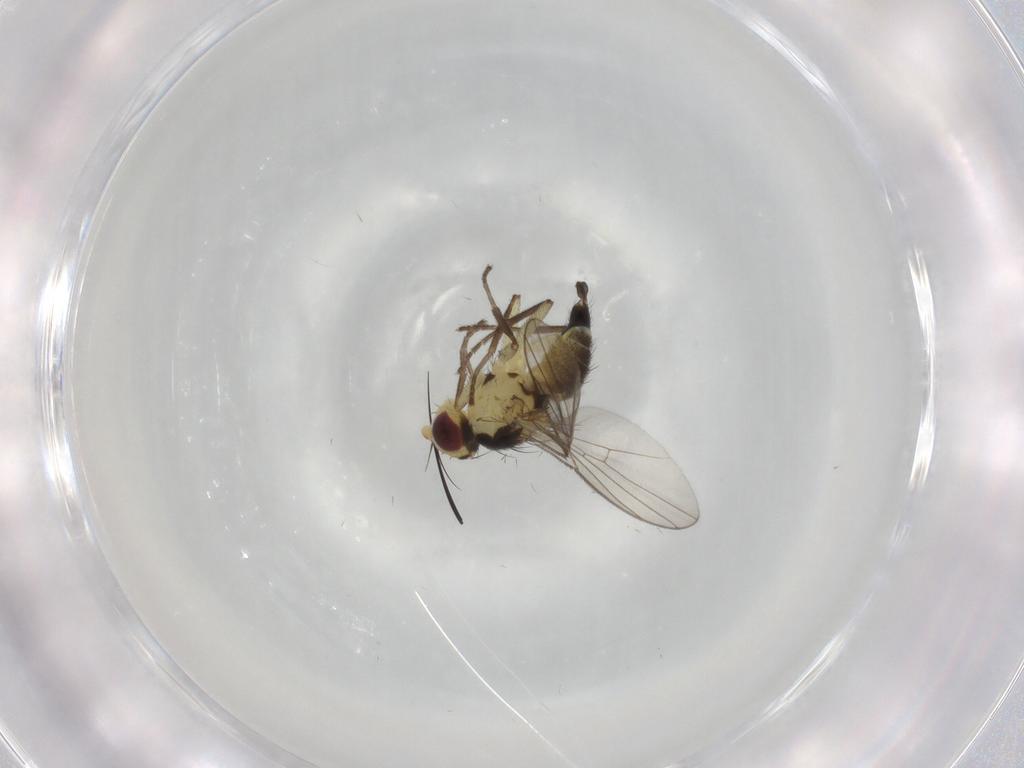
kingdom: Animalia
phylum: Arthropoda
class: Insecta
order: Diptera
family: Agromyzidae
